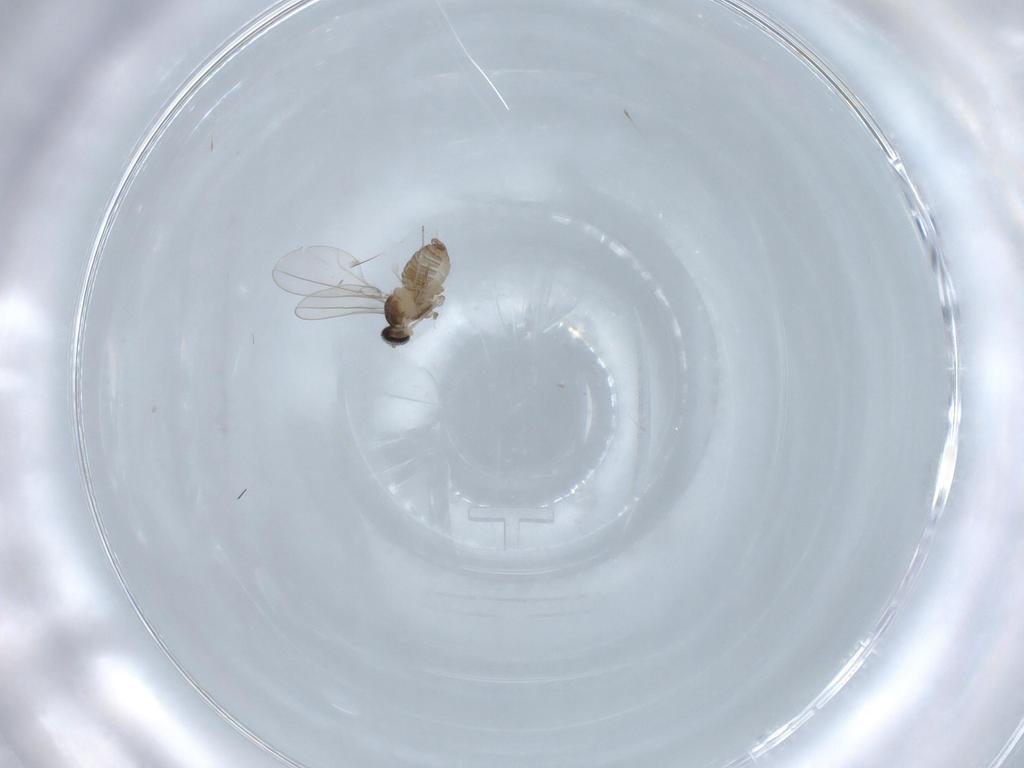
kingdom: Animalia
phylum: Arthropoda
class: Insecta
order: Diptera
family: Cecidomyiidae
